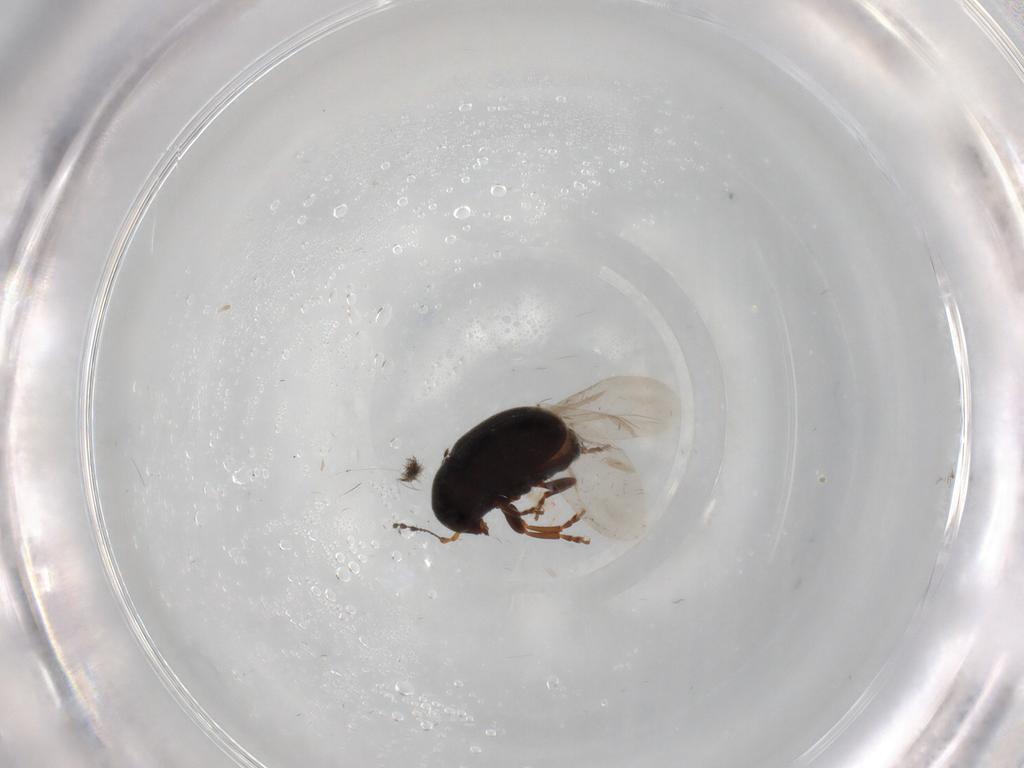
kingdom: Animalia
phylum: Arthropoda
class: Insecta
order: Coleoptera
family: Anthribidae
